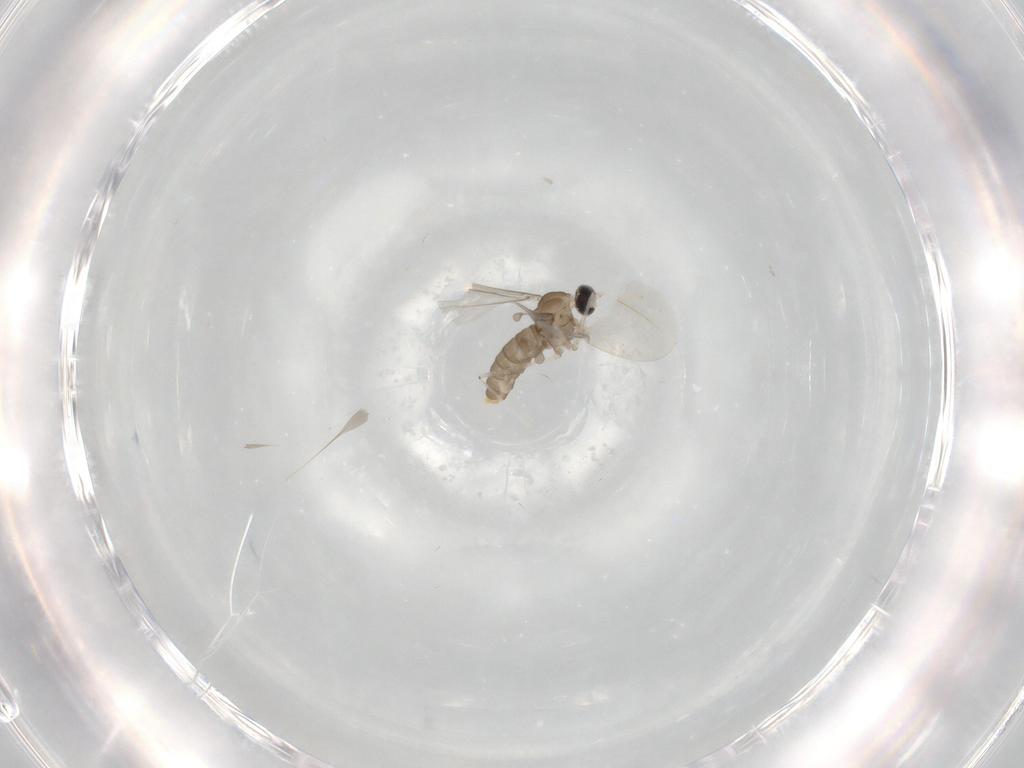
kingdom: Animalia
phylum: Arthropoda
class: Insecta
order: Diptera
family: Cecidomyiidae
